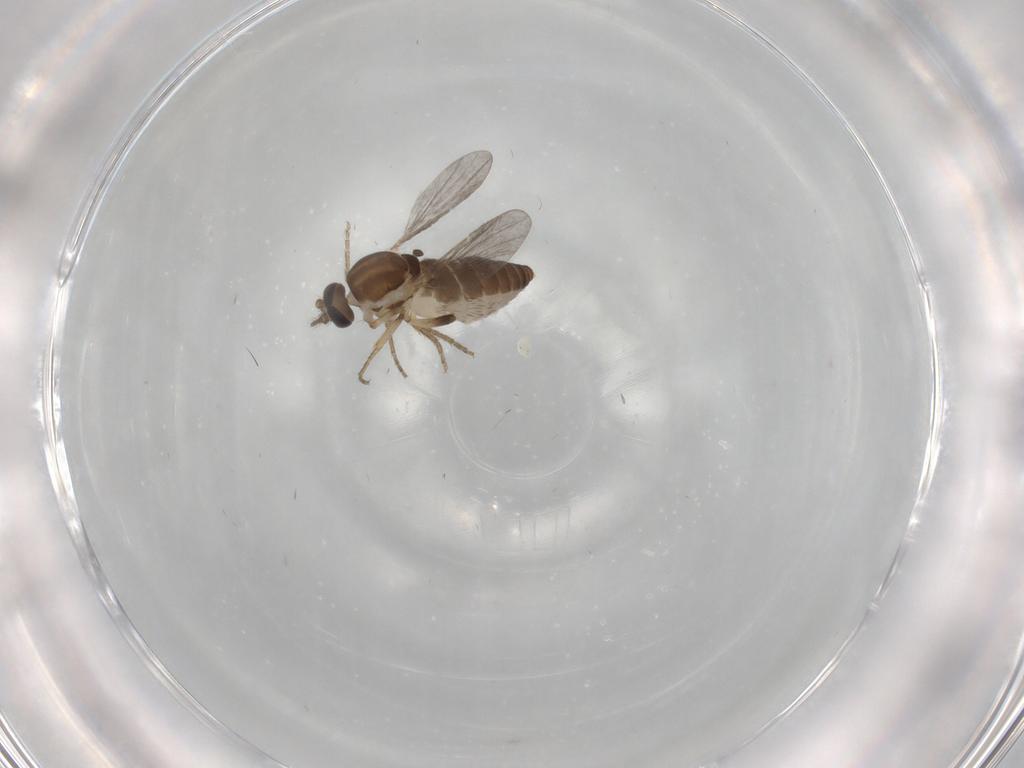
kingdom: Animalia
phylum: Arthropoda
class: Insecta
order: Diptera
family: Ceratopogonidae
